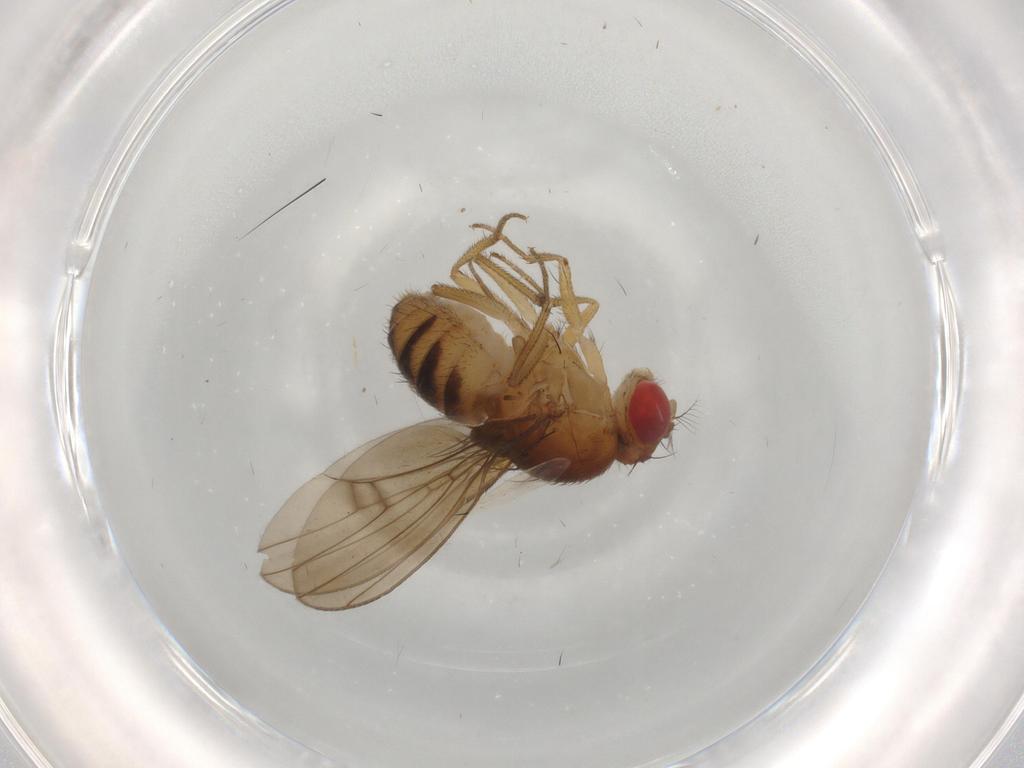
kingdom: Animalia
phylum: Arthropoda
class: Insecta
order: Diptera
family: Drosophilidae
